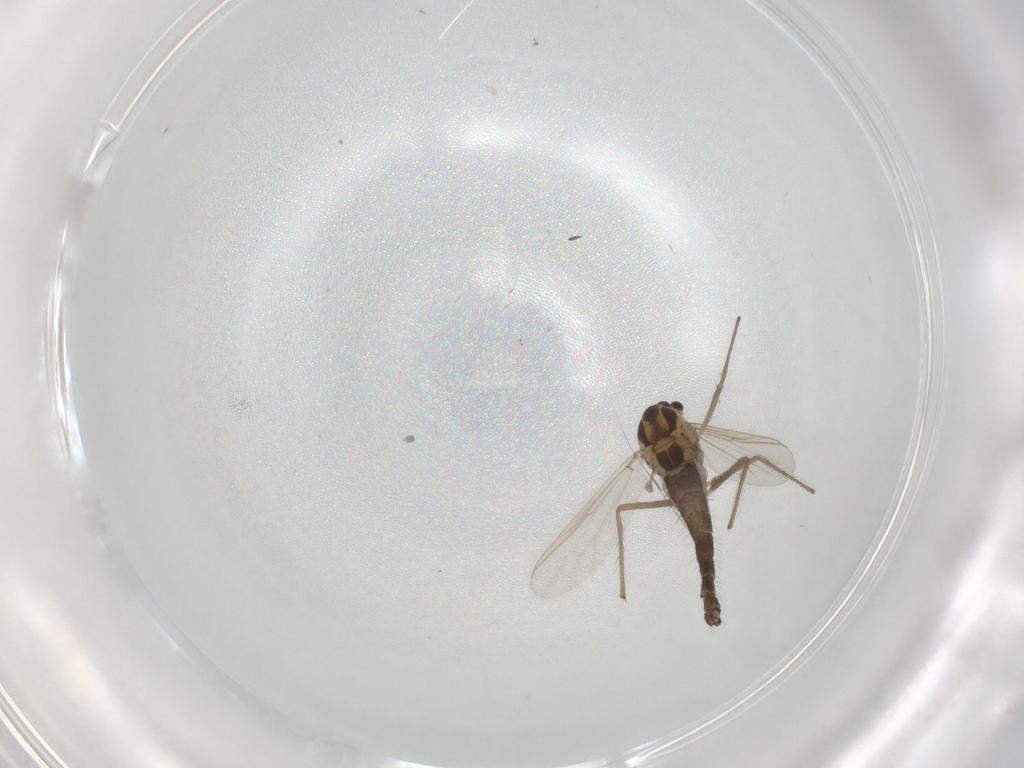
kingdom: Animalia
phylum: Arthropoda
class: Insecta
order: Diptera
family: Chironomidae
